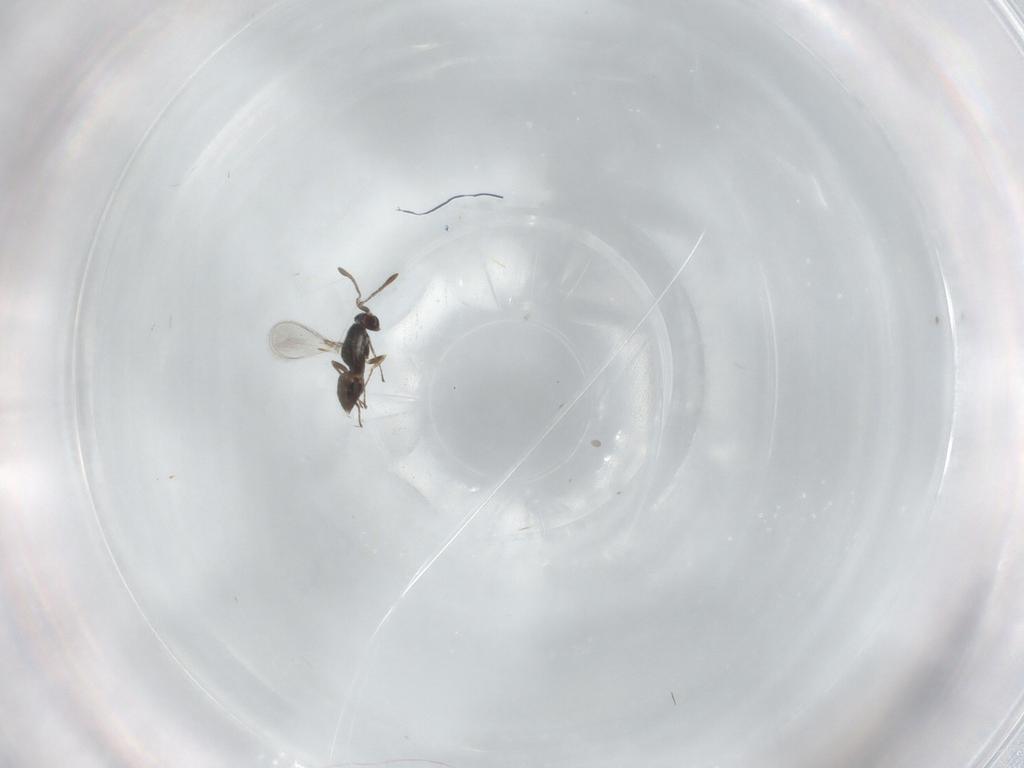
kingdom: Animalia
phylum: Arthropoda
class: Insecta
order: Hymenoptera
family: Mymaridae
